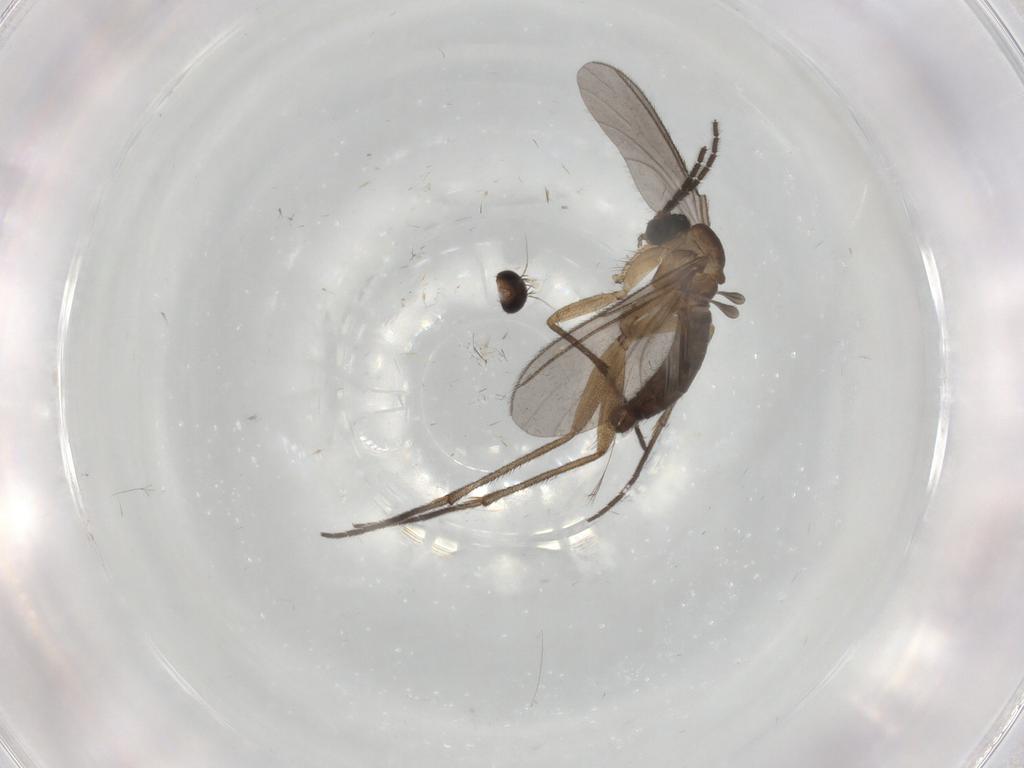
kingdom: Animalia
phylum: Arthropoda
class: Insecta
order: Diptera
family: Sciaridae
